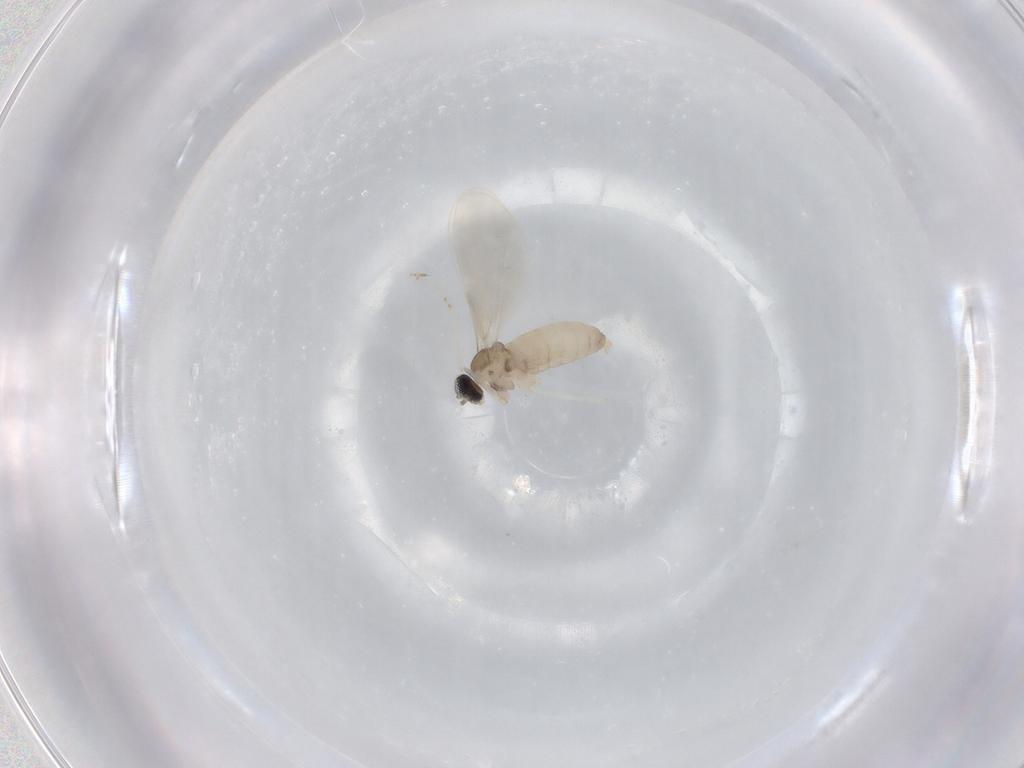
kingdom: Animalia
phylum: Arthropoda
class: Insecta
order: Diptera
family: Cecidomyiidae
